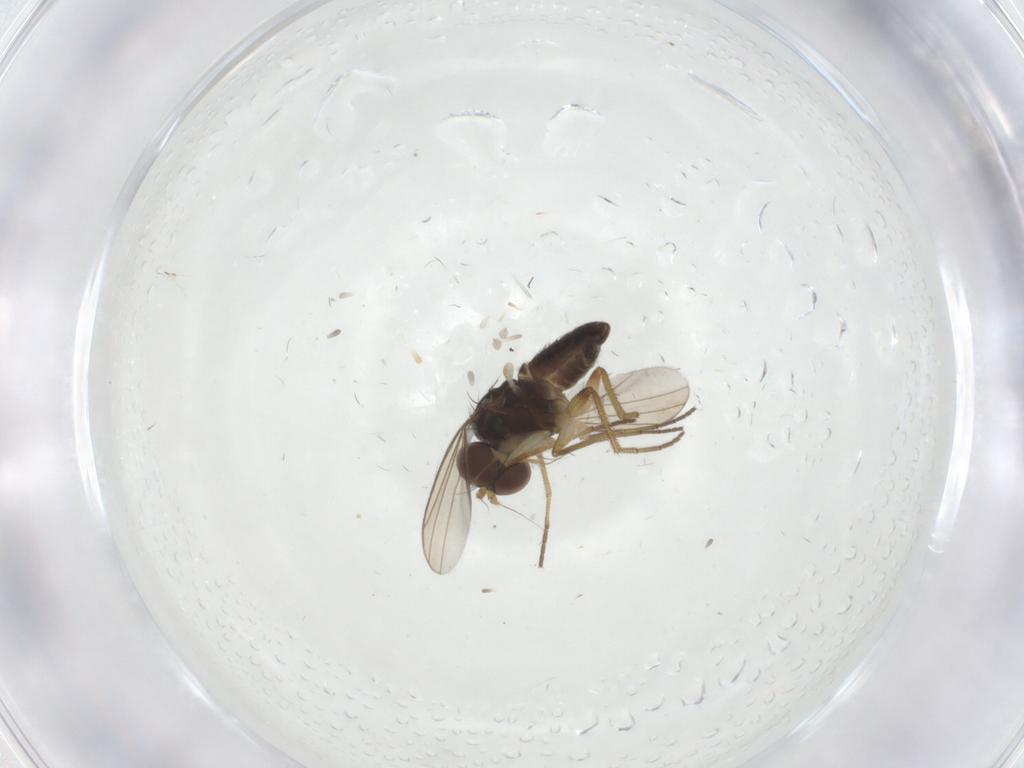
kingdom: Animalia
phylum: Arthropoda
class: Insecta
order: Diptera
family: Dolichopodidae
